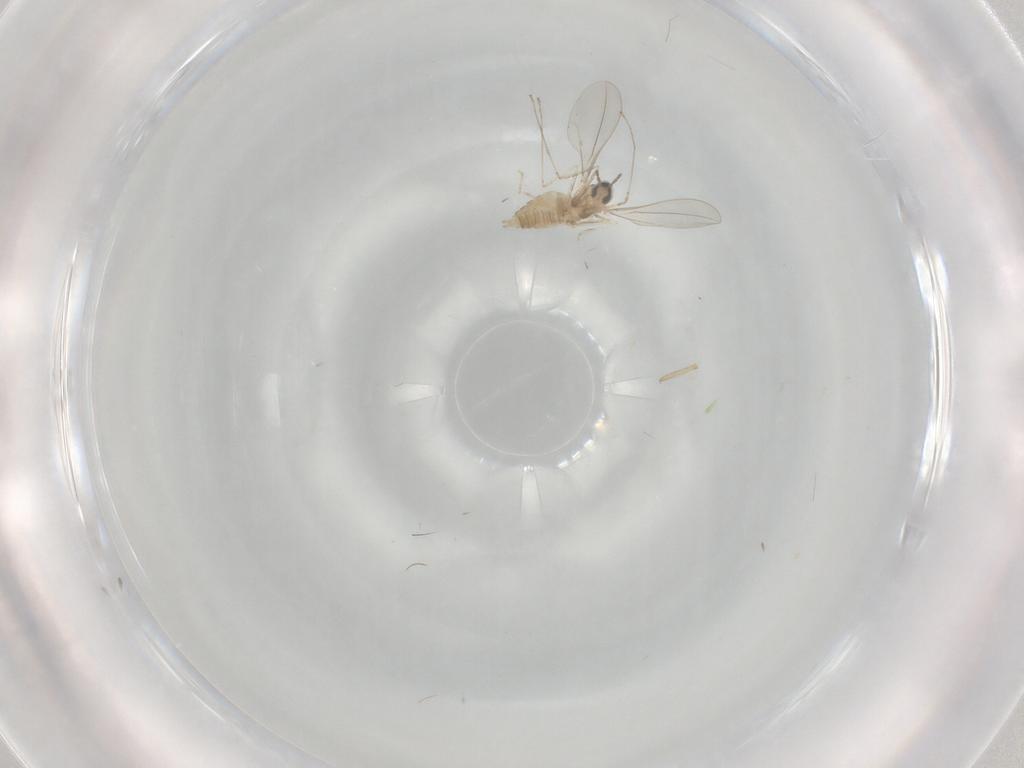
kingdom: Animalia
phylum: Arthropoda
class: Insecta
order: Diptera
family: Cecidomyiidae
